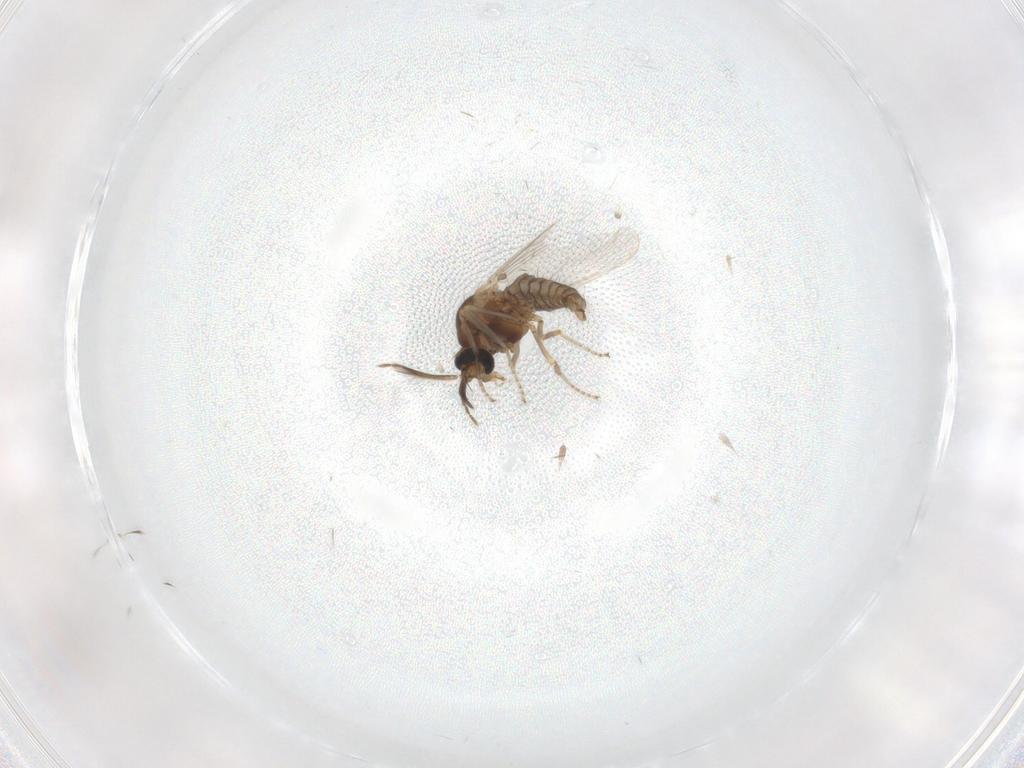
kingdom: Animalia
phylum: Arthropoda
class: Insecta
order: Diptera
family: Ceratopogonidae
